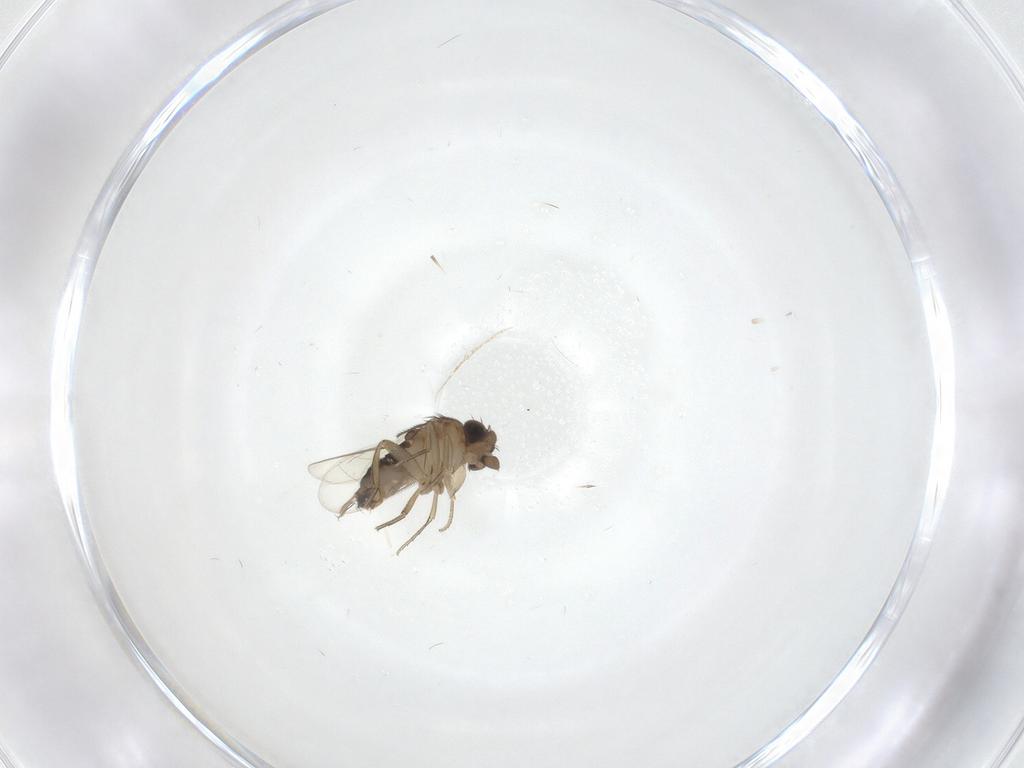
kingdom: Animalia
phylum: Arthropoda
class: Insecta
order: Diptera
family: Phoridae
